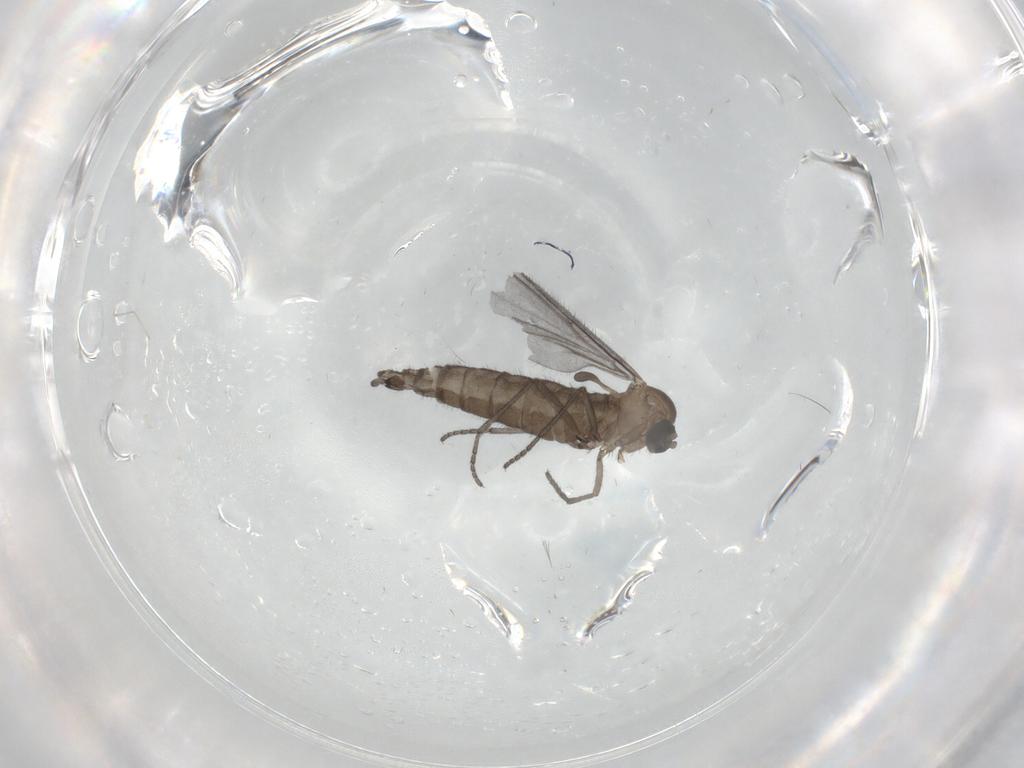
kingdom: Animalia
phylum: Arthropoda
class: Insecta
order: Diptera
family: Sciaridae
